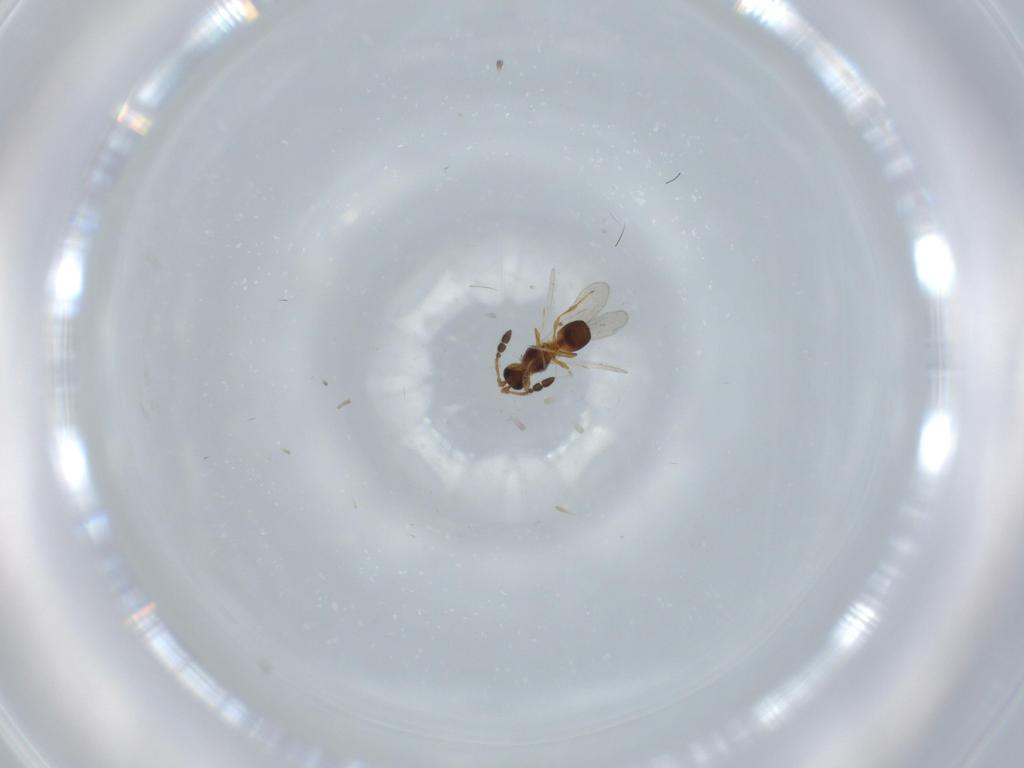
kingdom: Animalia
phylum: Arthropoda
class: Insecta
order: Hymenoptera
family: Diapriidae
